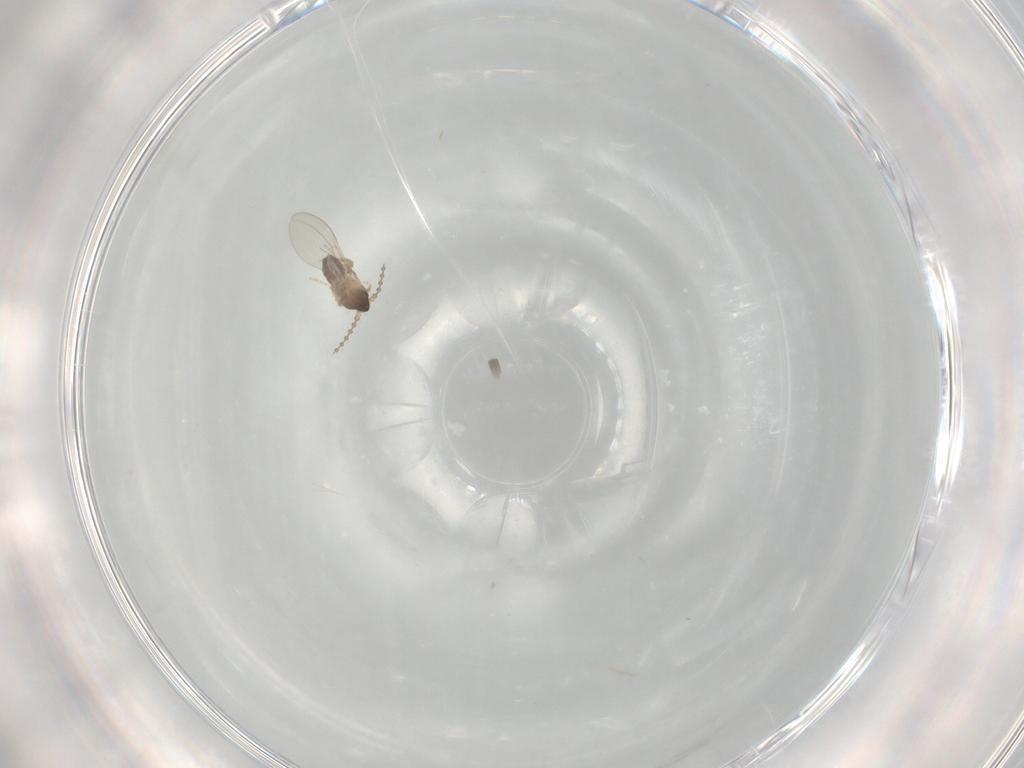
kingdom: Animalia
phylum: Arthropoda
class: Insecta
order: Diptera
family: Cecidomyiidae
